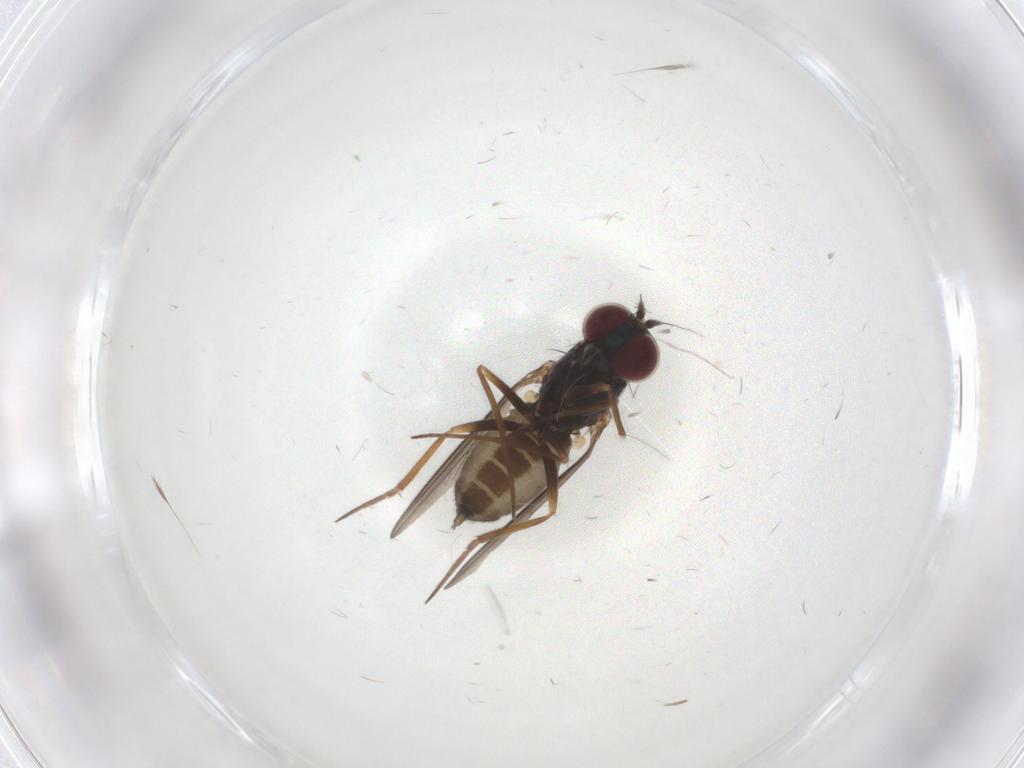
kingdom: Animalia
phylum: Arthropoda
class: Insecta
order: Diptera
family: Dolichopodidae
